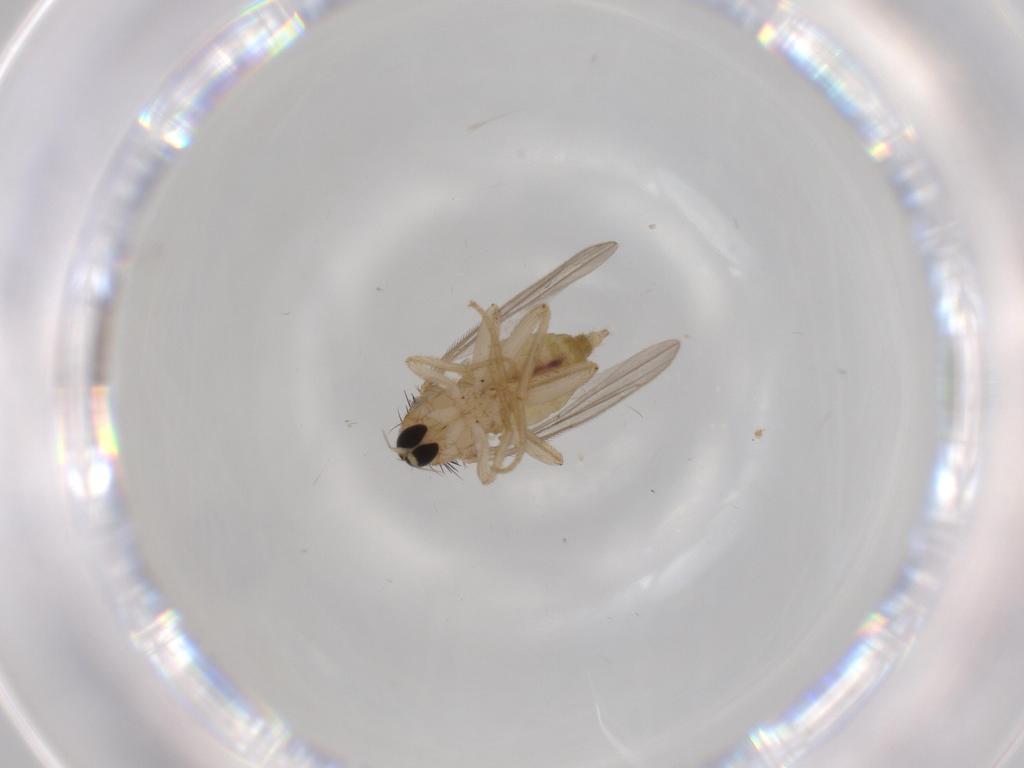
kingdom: Animalia
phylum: Arthropoda
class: Insecta
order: Diptera
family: Hybotidae
